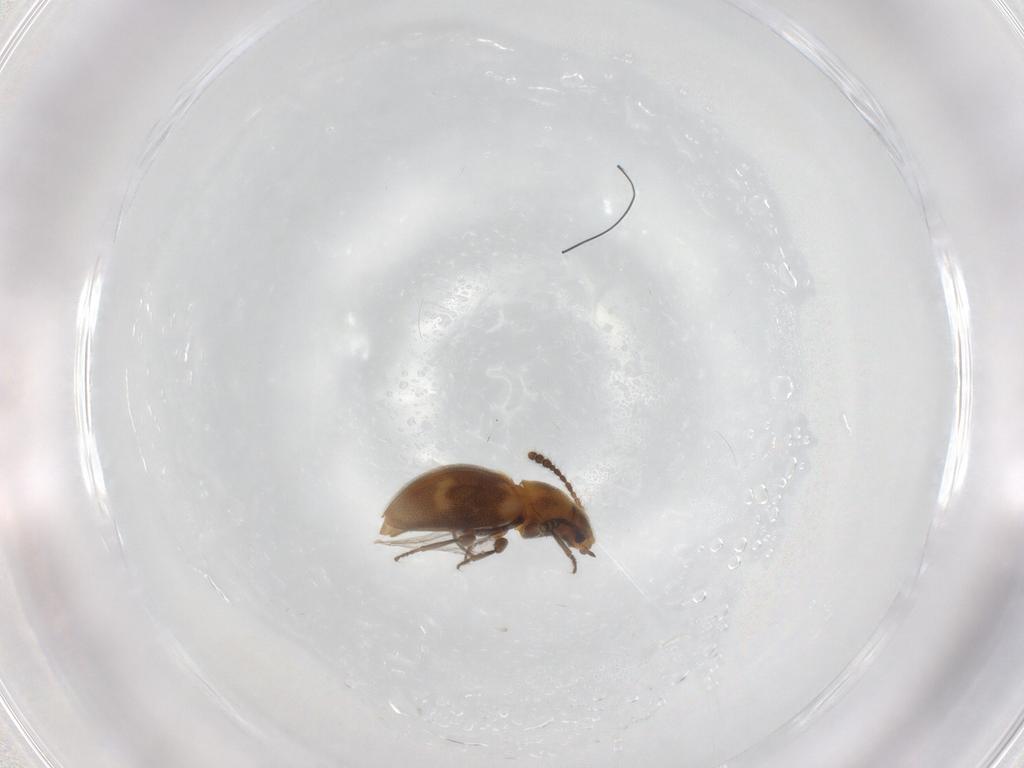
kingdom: Animalia
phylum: Arthropoda
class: Insecta
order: Coleoptera
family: Erotylidae
